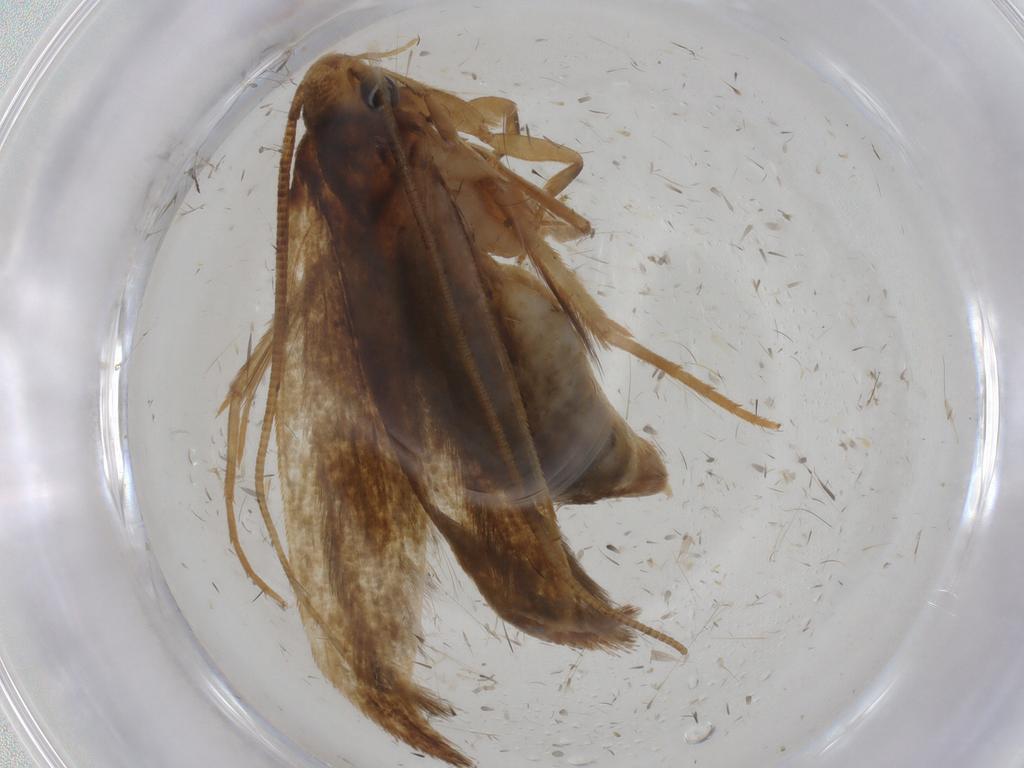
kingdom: Animalia
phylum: Arthropoda
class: Insecta
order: Lepidoptera
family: Tineidae
